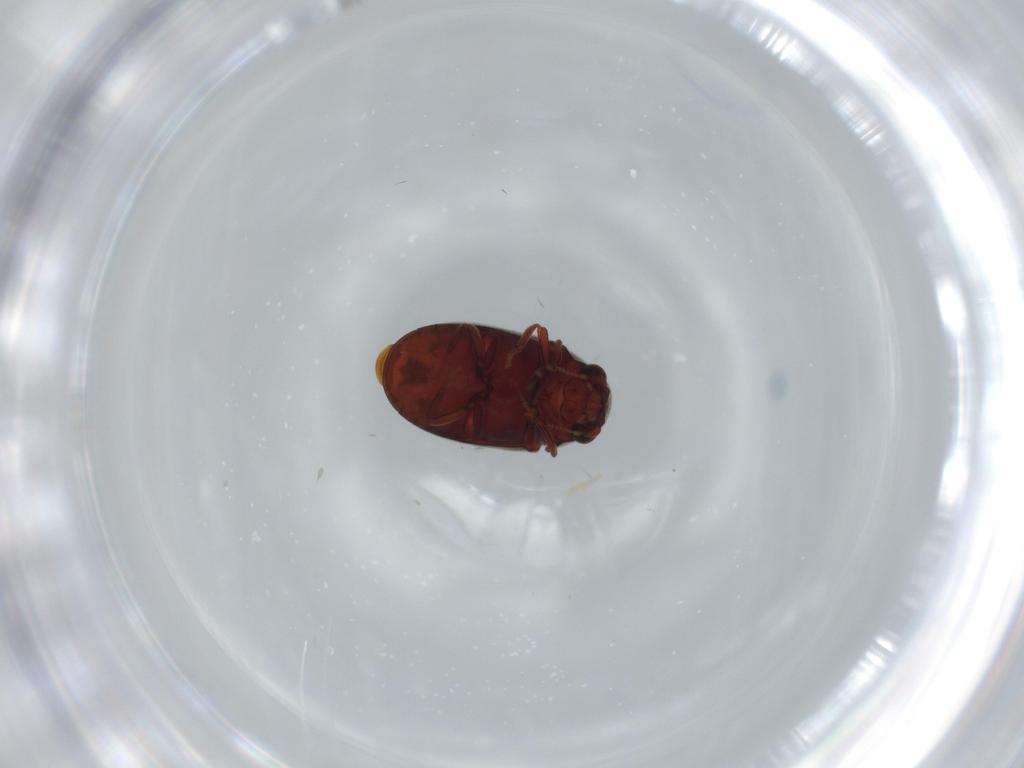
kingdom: Animalia
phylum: Arthropoda
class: Insecta
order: Coleoptera
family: Ptinidae
